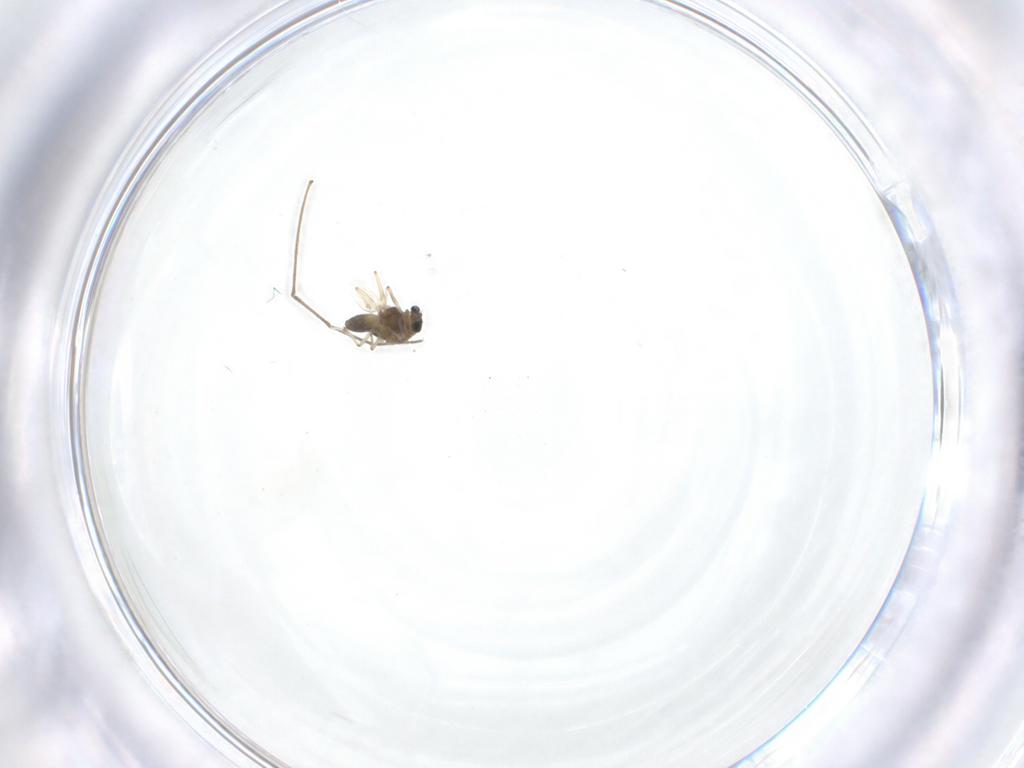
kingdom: Animalia
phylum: Arthropoda
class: Insecta
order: Diptera
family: Chironomidae
